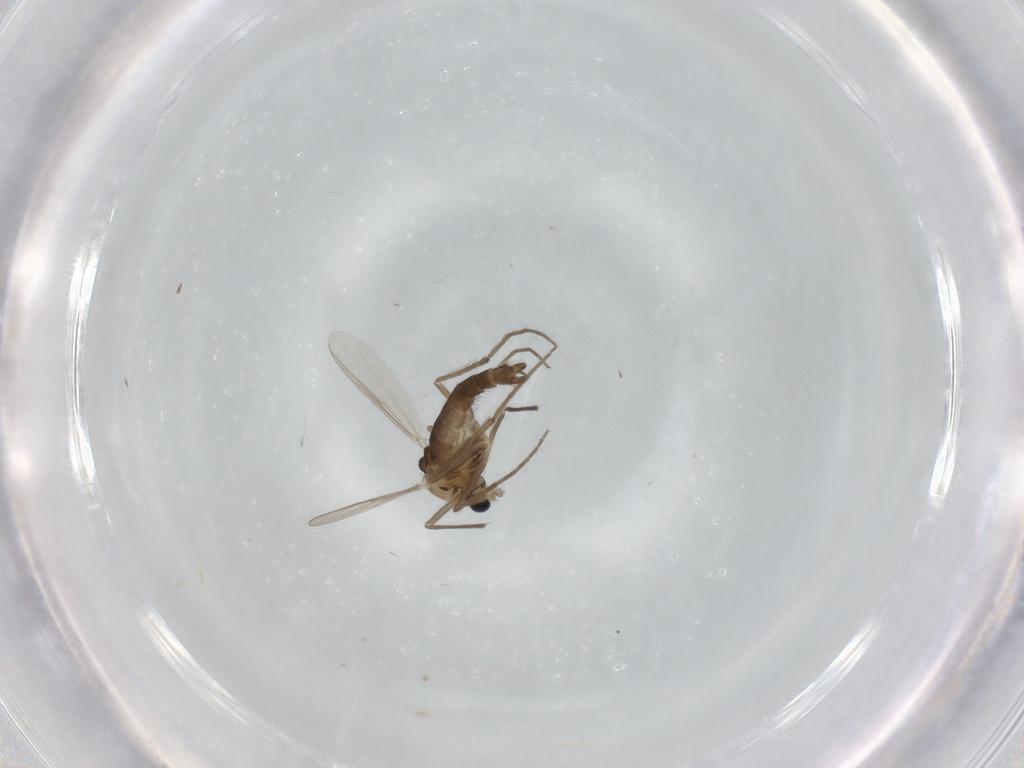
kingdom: Animalia
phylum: Arthropoda
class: Insecta
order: Diptera
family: Chironomidae
